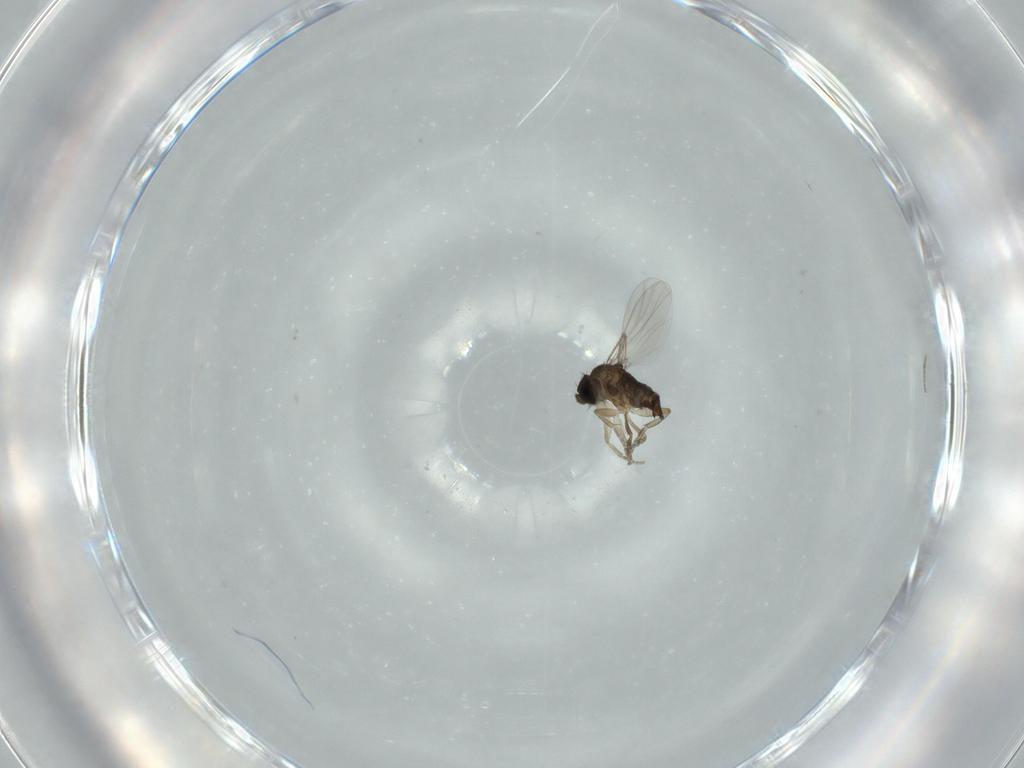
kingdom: Animalia
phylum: Arthropoda
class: Insecta
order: Diptera
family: Phoridae
